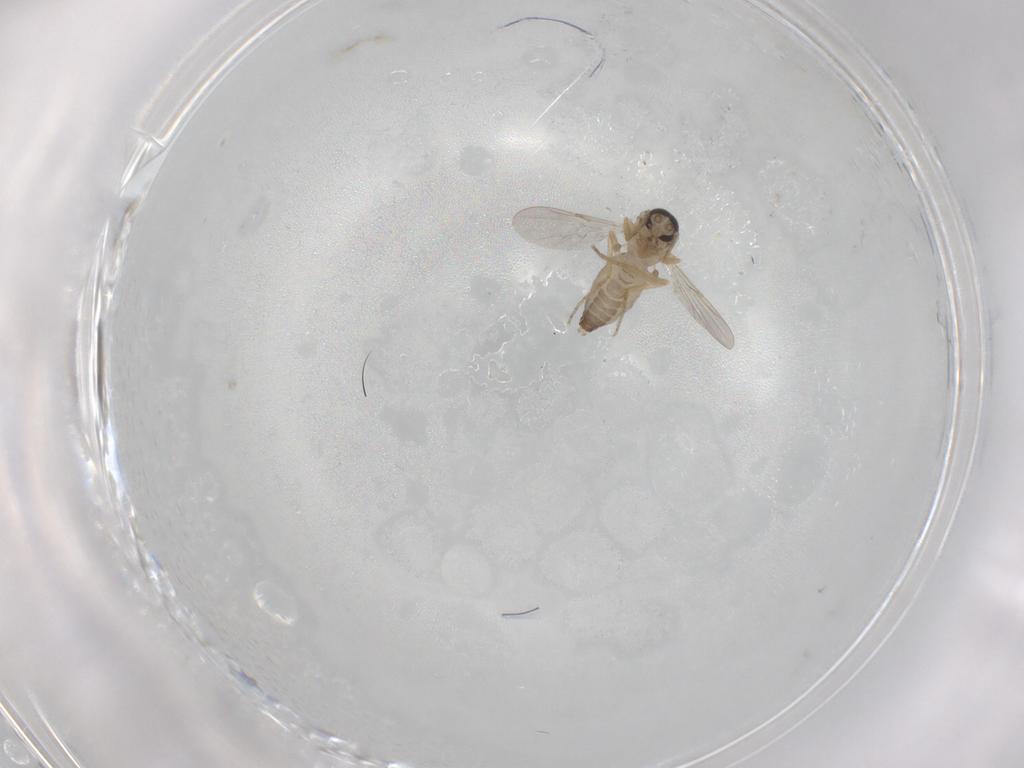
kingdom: Animalia
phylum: Arthropoda
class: Insecta
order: Diptera
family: Ceratopogonidae
